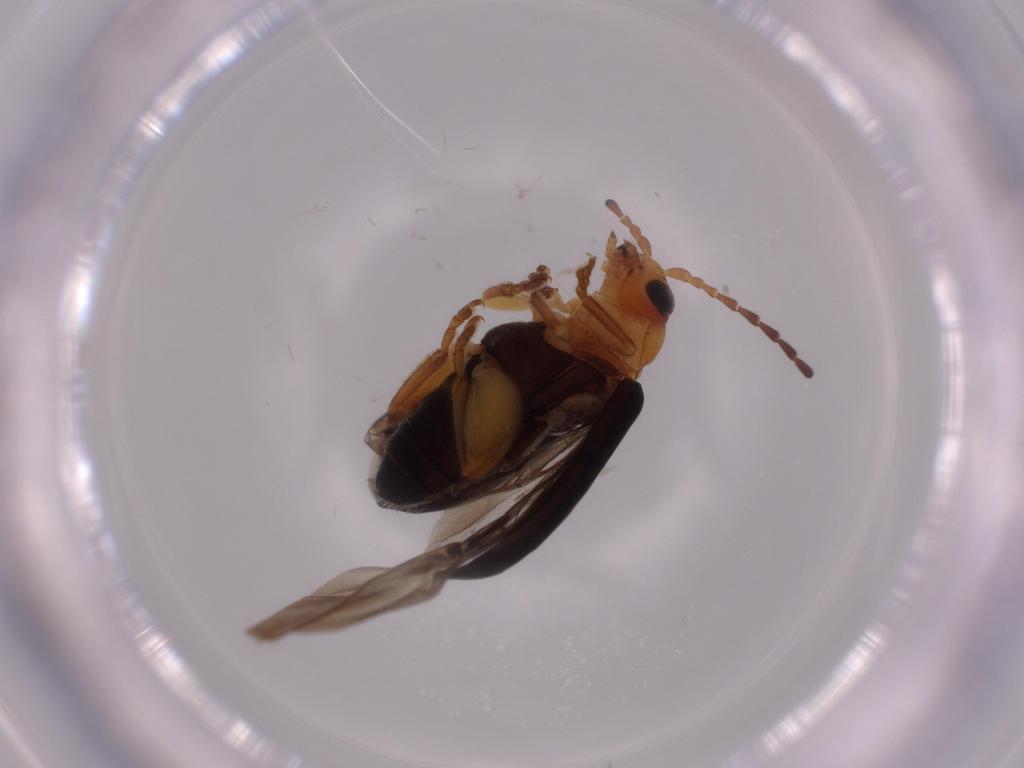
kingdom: Animalia
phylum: Arthropoda
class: Insecta
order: Coleoptera
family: Chrysomelidae
